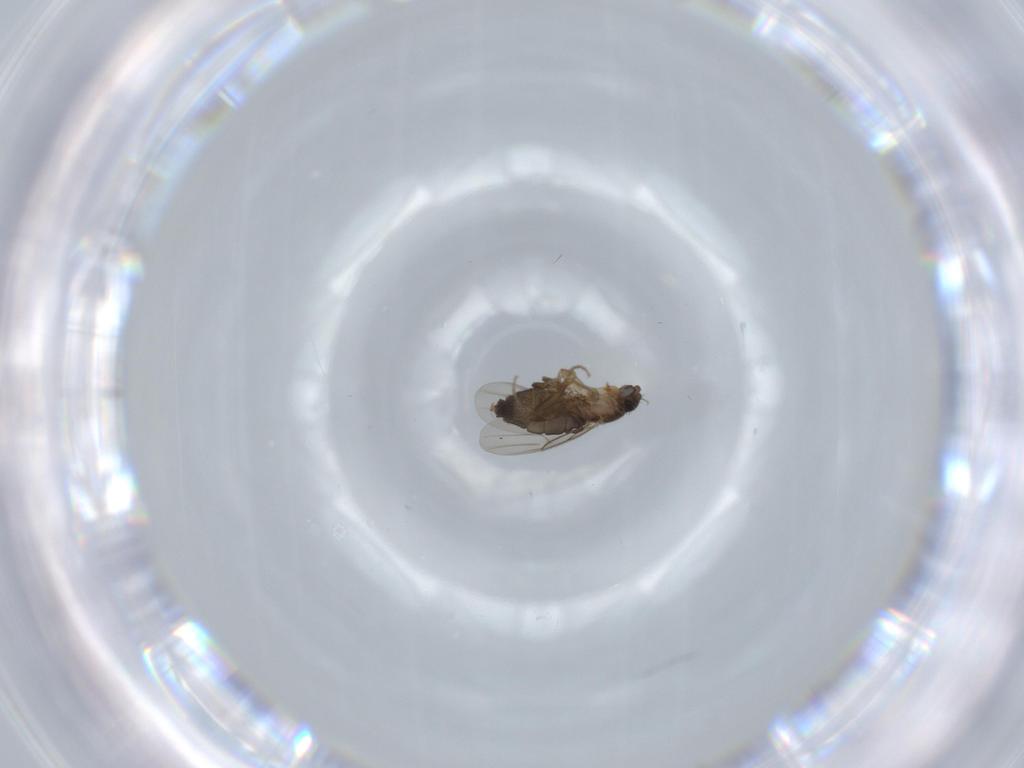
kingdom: Animalia
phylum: Arthropoda
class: Insecta
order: Diptera
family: Phoridae
